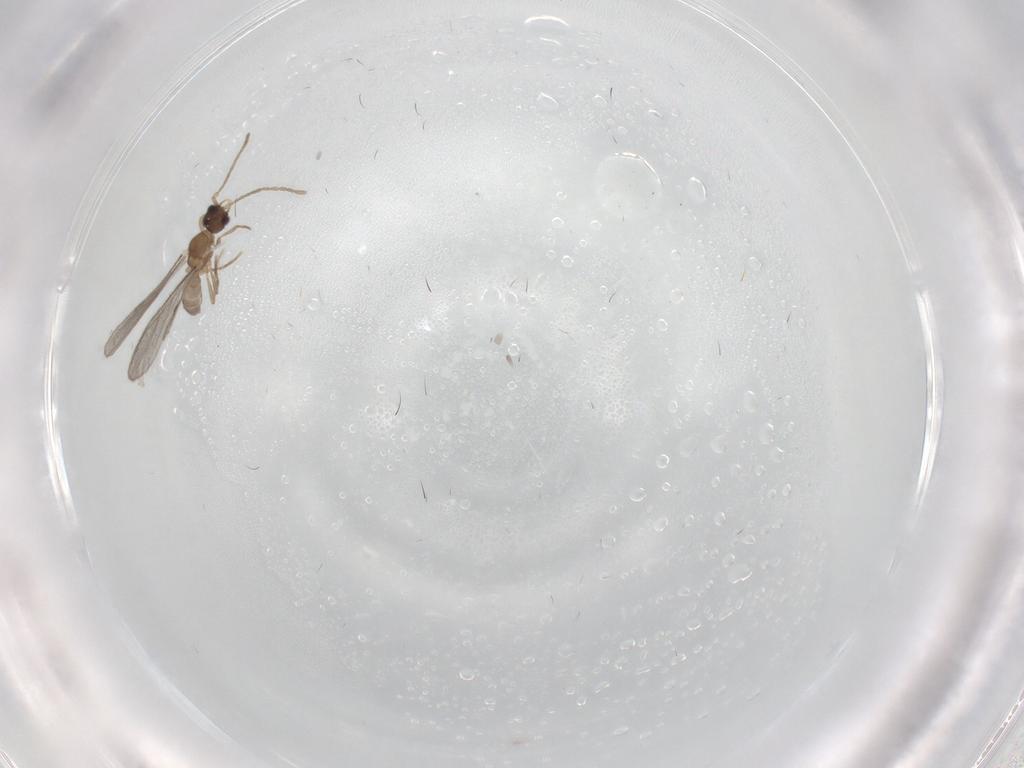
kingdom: Animalia
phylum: Arthropoda
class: Insecta
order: Hymenoptera
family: Formicidae
